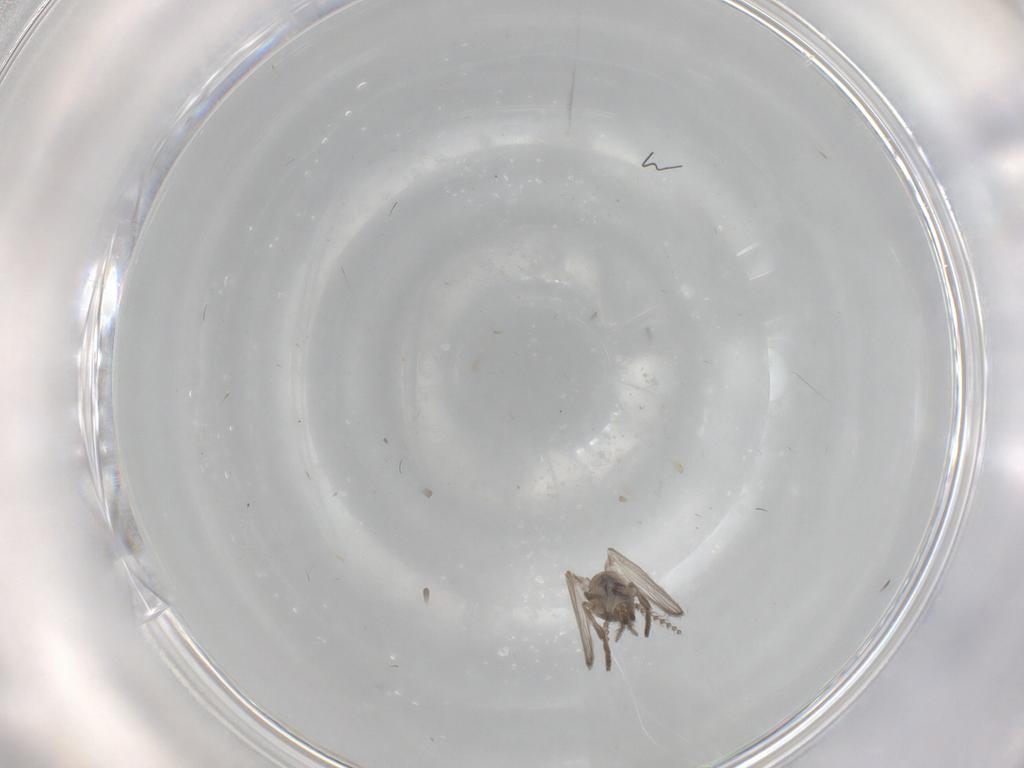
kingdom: Animalia
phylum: Arthropoda
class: Insecta
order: Diptera
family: Psychodidae
